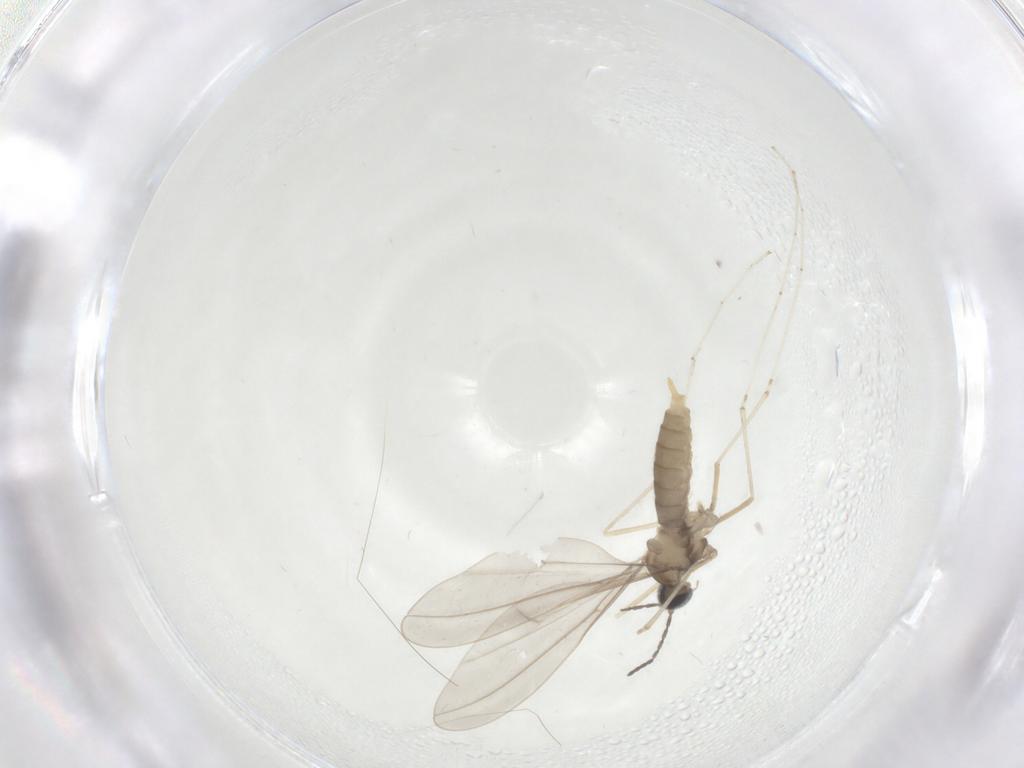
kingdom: Animalia
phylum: Arthropoda
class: Insecta
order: Diptera
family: Cecidomyiidae
